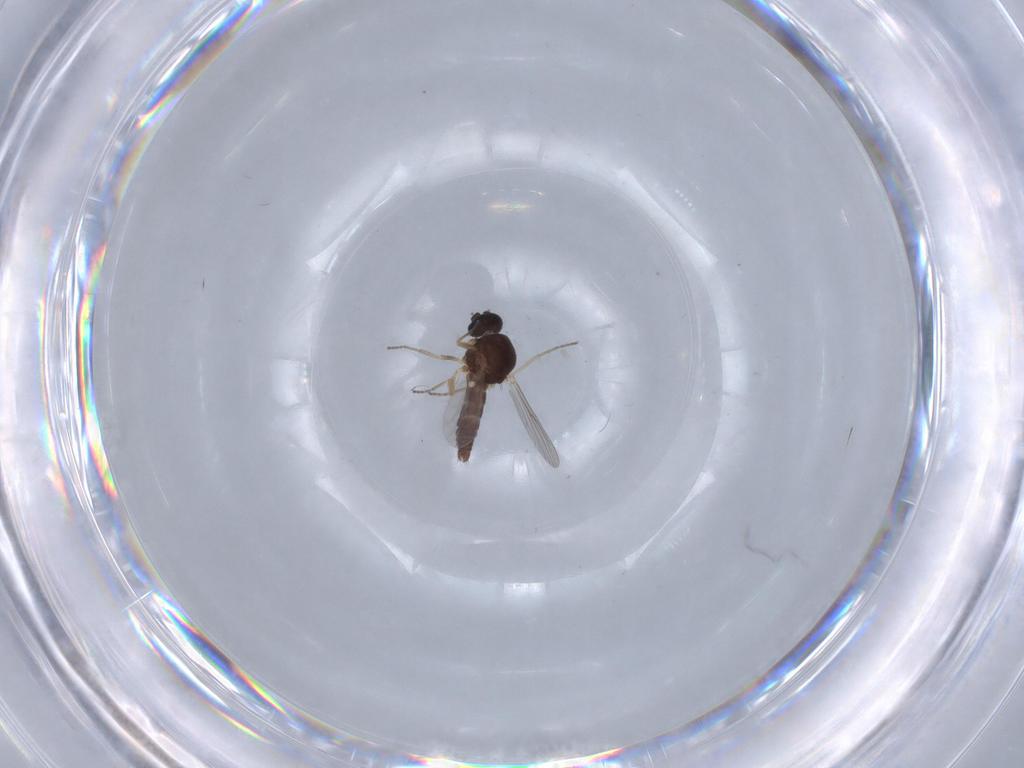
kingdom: Animalia
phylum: Arthropoda
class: Insecta
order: Diptera
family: Ceratopogonidae
